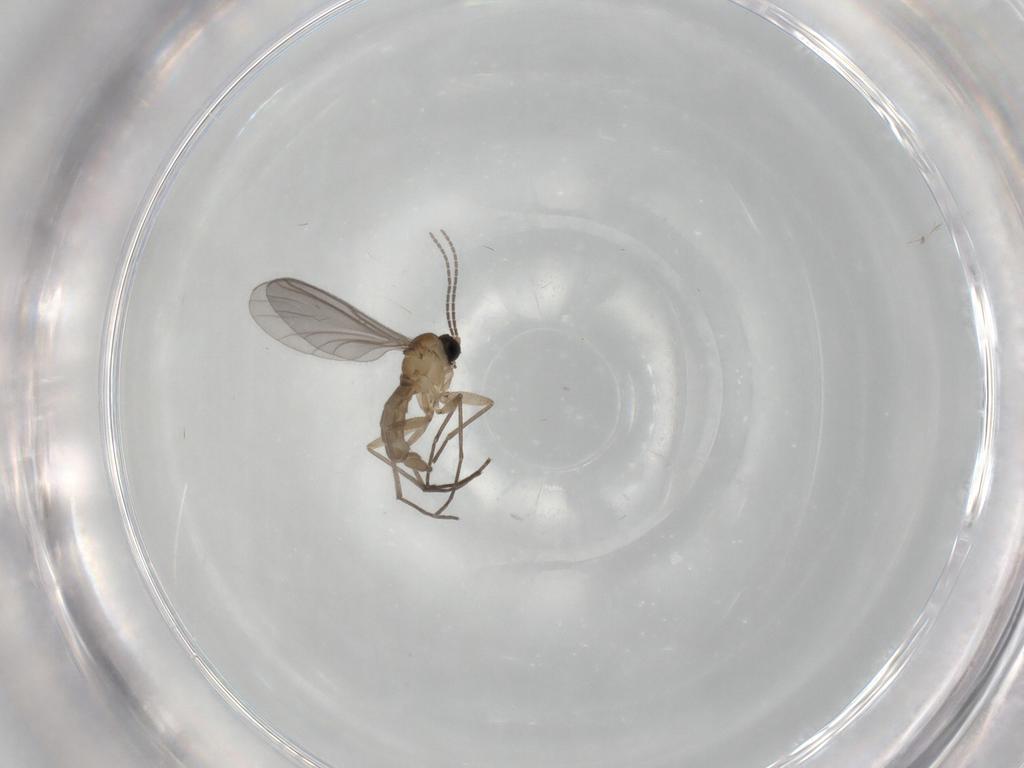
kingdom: Animalia
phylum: Arthropoda
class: Insecta
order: Diptera
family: Sciaridae
